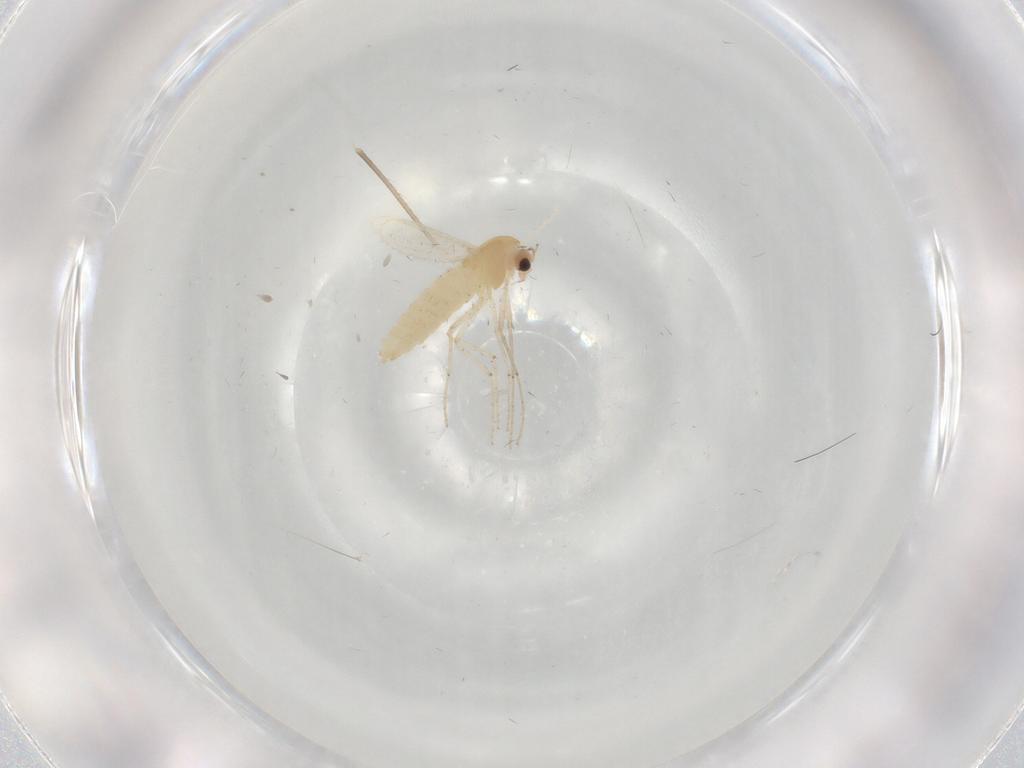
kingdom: Animalia
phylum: Arthropoda
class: Insecta
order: Diptera
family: Chironomidae
